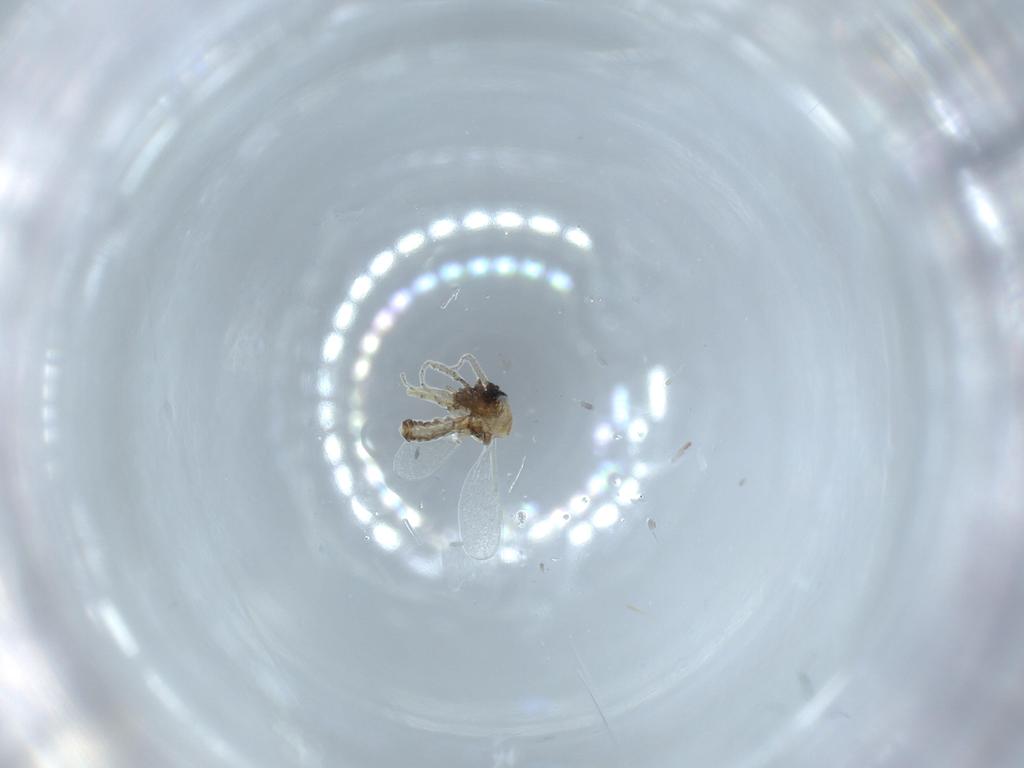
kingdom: Animalia
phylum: Arthropoda
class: Insecta
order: Diptera
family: Ceratopogonidae
